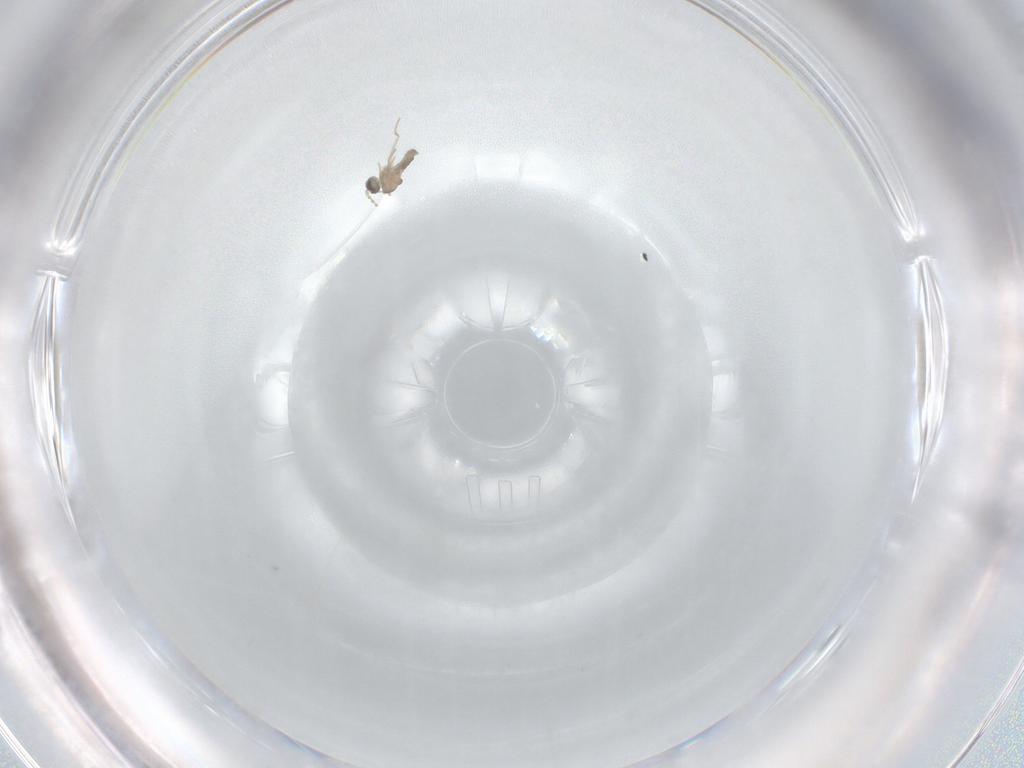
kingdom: Animalia
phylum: Arthropoda
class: Insecta
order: Diptera
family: Cecidomyiidae
